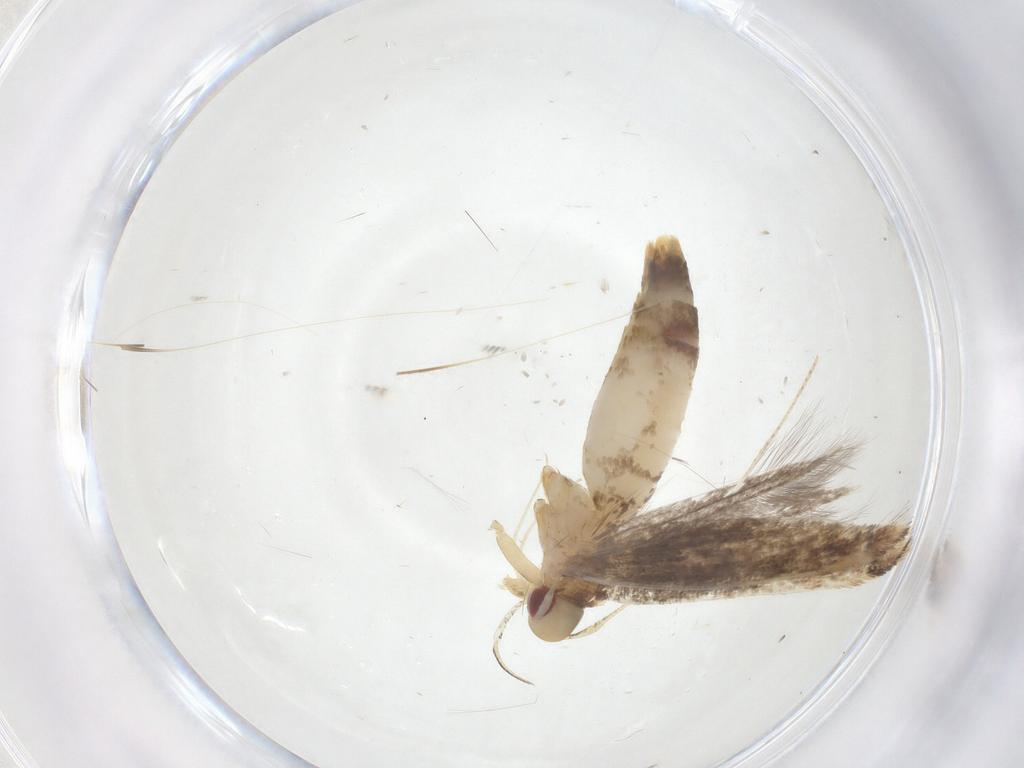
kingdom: Animalia
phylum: Arthropoda
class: Insecta
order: Lepidoptera
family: Cosmopterigidae
